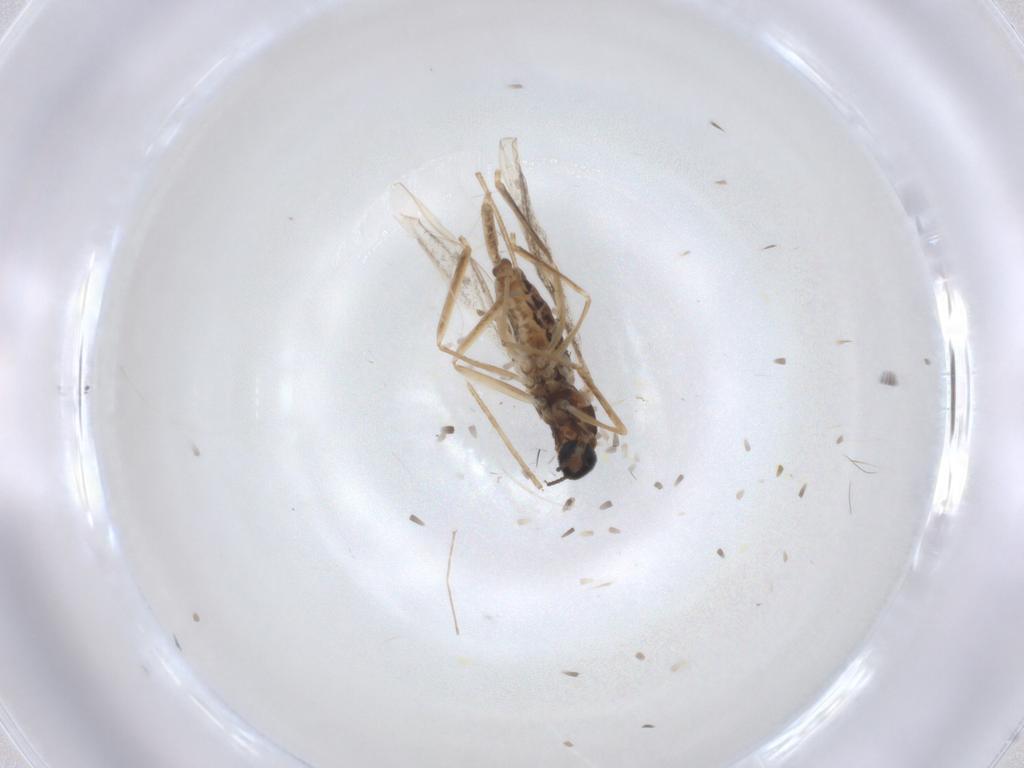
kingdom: Animalia
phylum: Arthropoda
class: Insecta
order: Diptera
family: Cecidomyiidae
